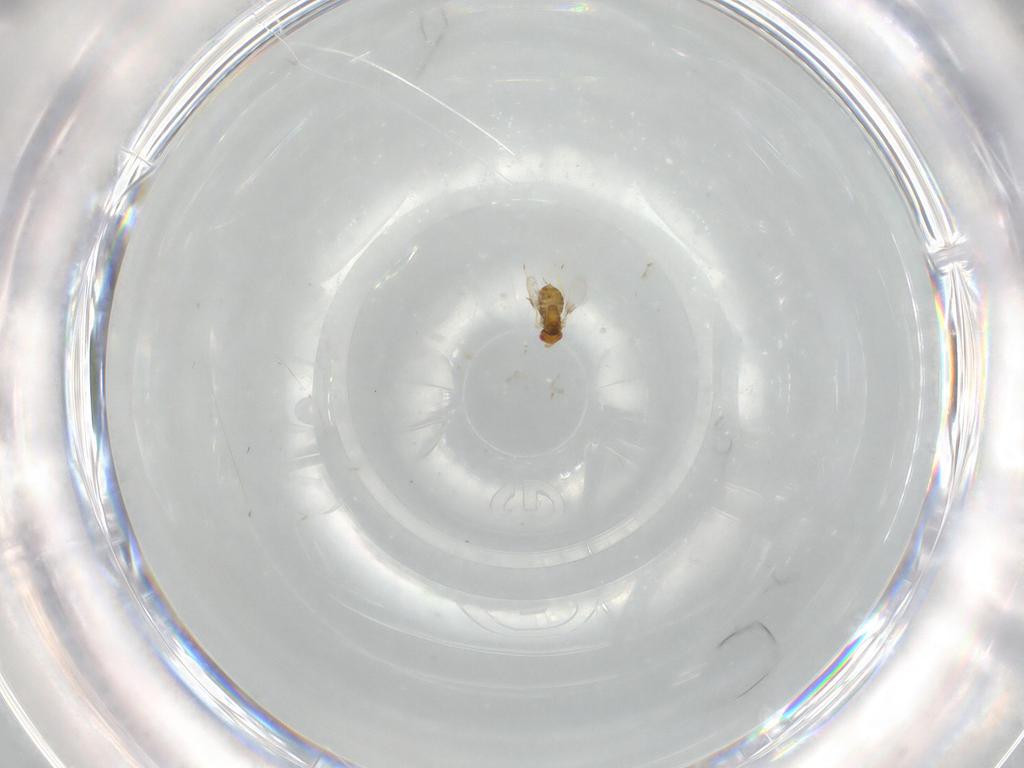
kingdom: Animalia
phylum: Arthropoda
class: Insecta
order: Hymenoptera
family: Trichogrammatidae
